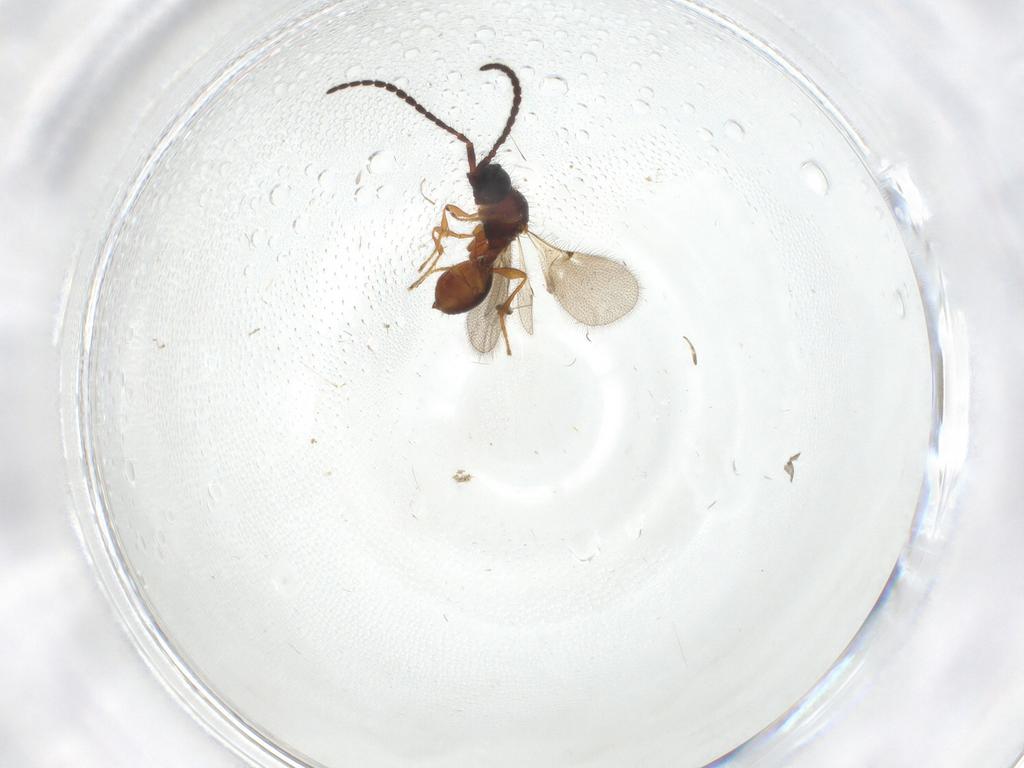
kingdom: Animalia
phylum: Arthropoda
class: Insecta
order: Hymenoptera
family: Diapriidae
